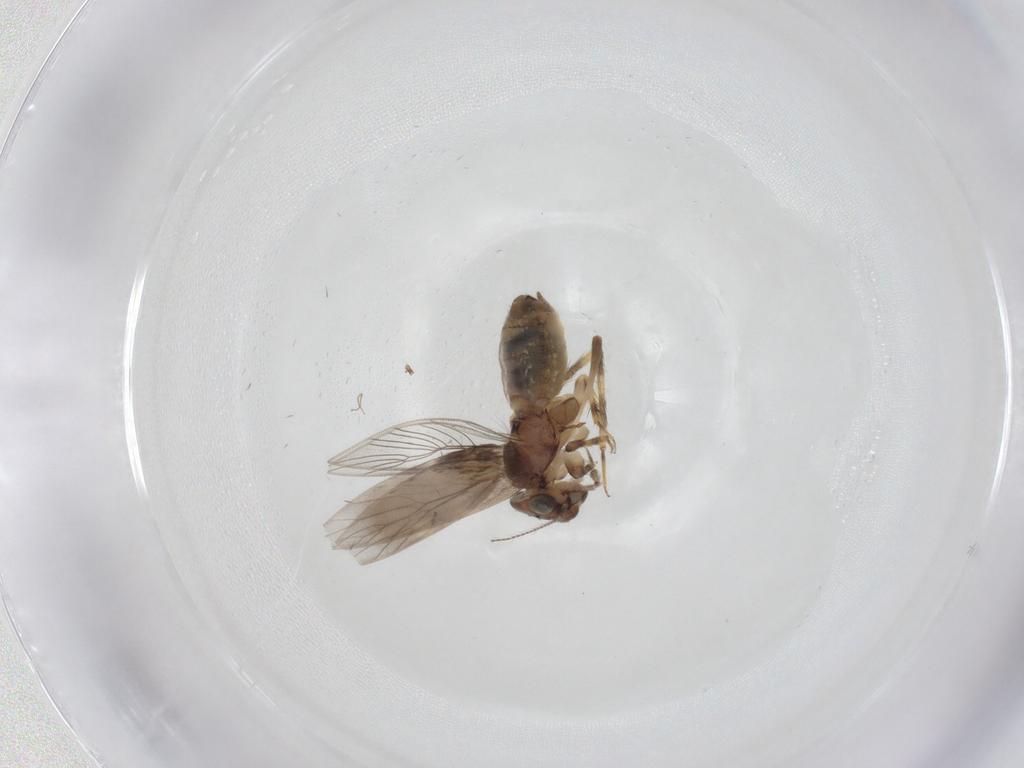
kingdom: Animalia
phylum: Arthropoda
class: Insecta
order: Psocodea
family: Lepidopsocidae
